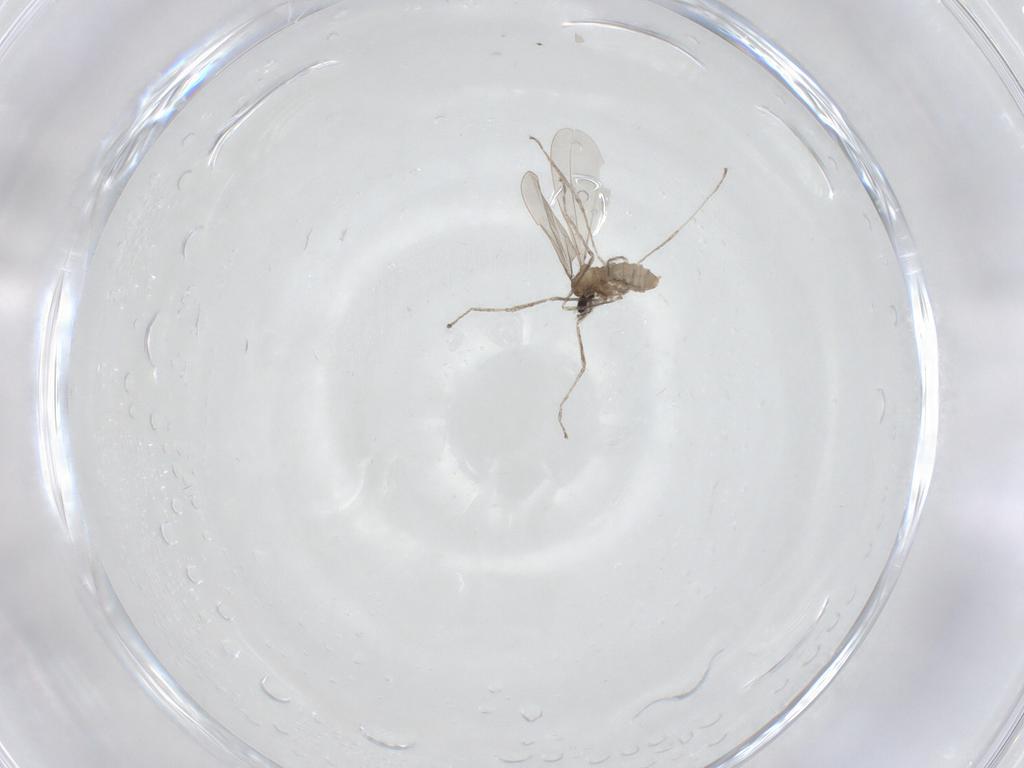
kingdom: Animalia
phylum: Arthropoda
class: Insecta
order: Diptera
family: Cecidomyiidae
